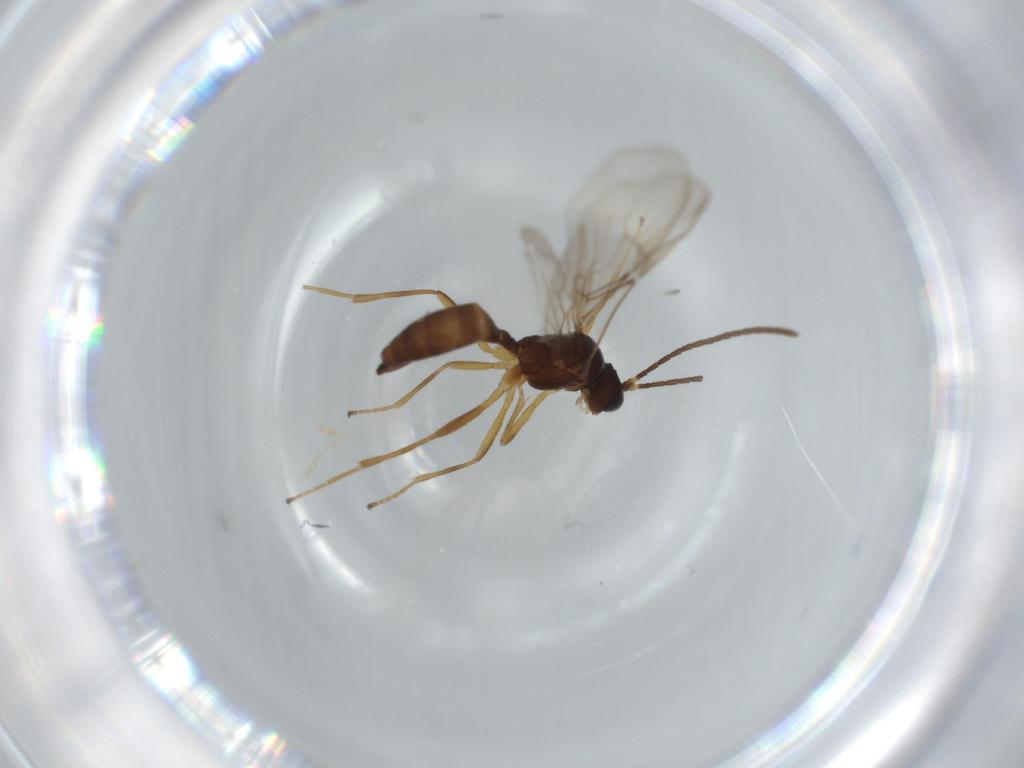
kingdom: Animalia
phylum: Arthropoda
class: Insecta
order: Hymenoptera
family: Braconidae
